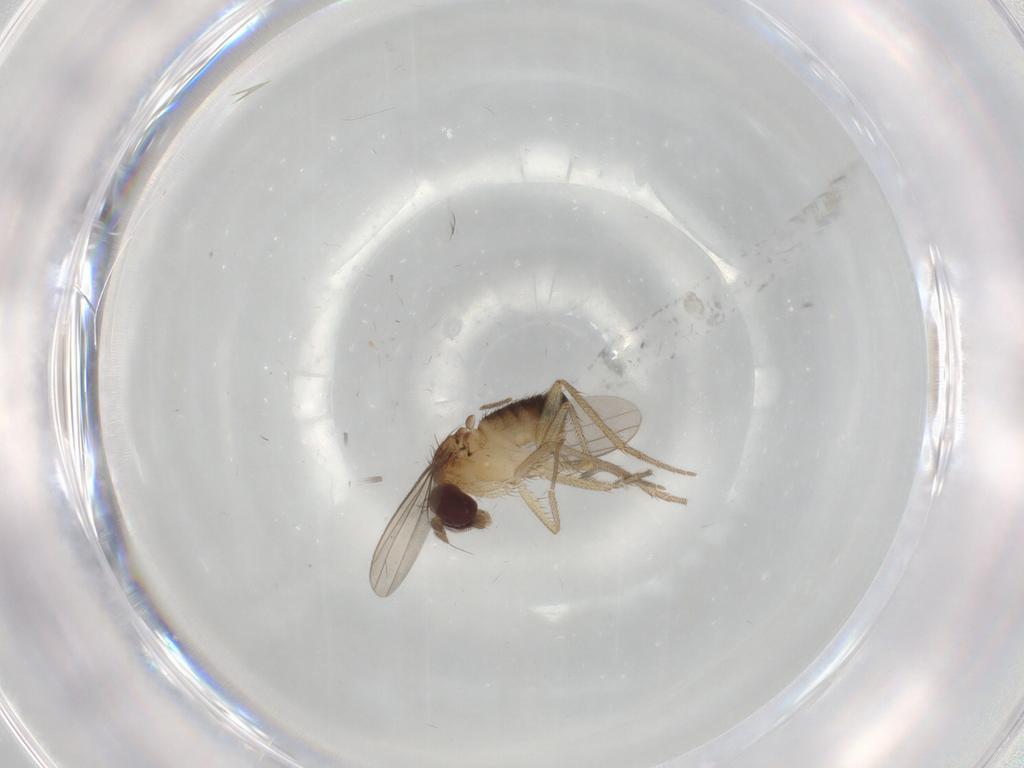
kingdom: Animalia
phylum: Arthropoda
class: Insecta
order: Diptera
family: Dolichopodidae
